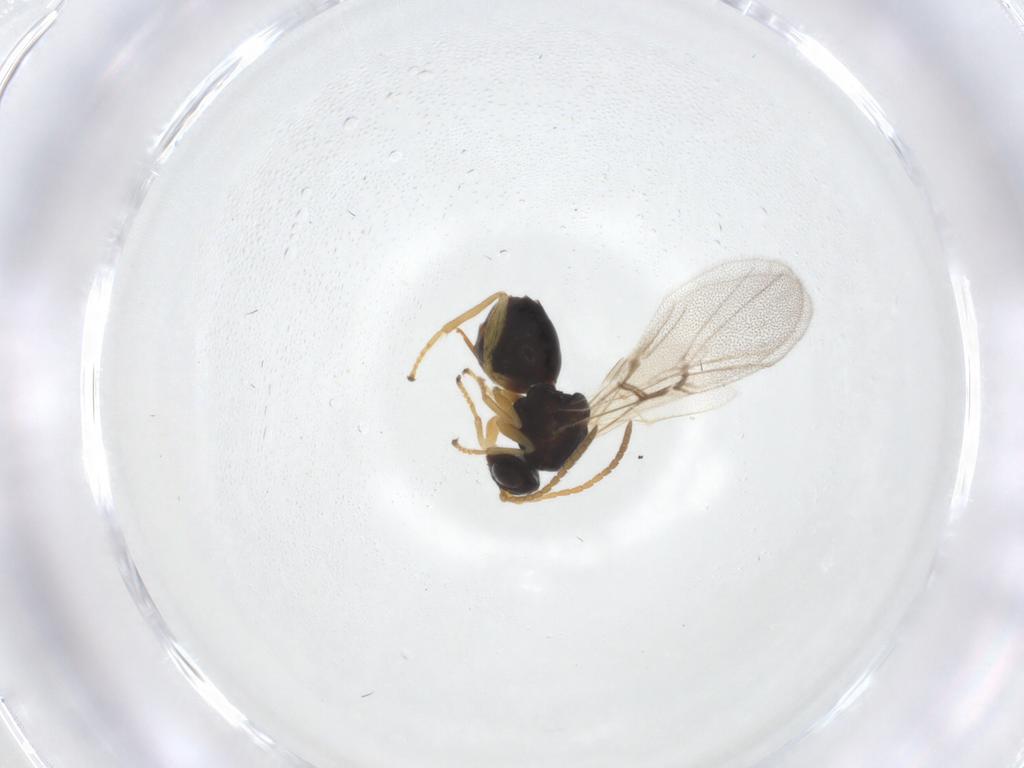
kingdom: Animalia
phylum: Arthropoda
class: Insecta
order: Hymenoptera
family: Cynipidae
